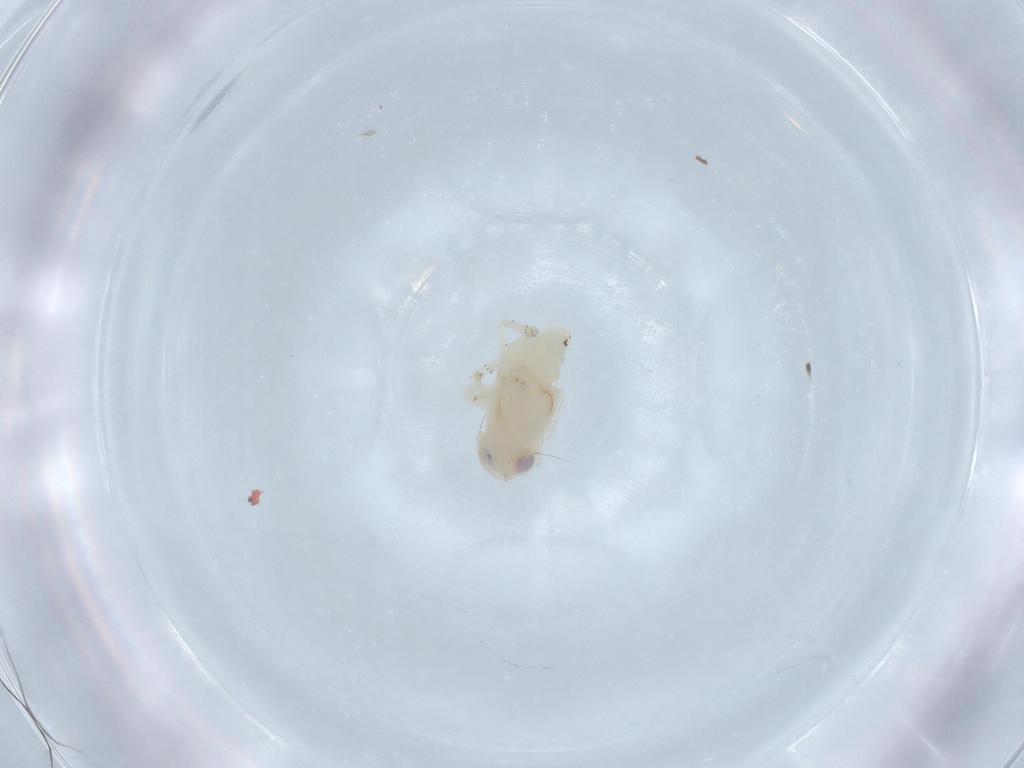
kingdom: Animalia
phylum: Arthropoda
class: Insecta
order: Hemiptera
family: Nogodinidae
